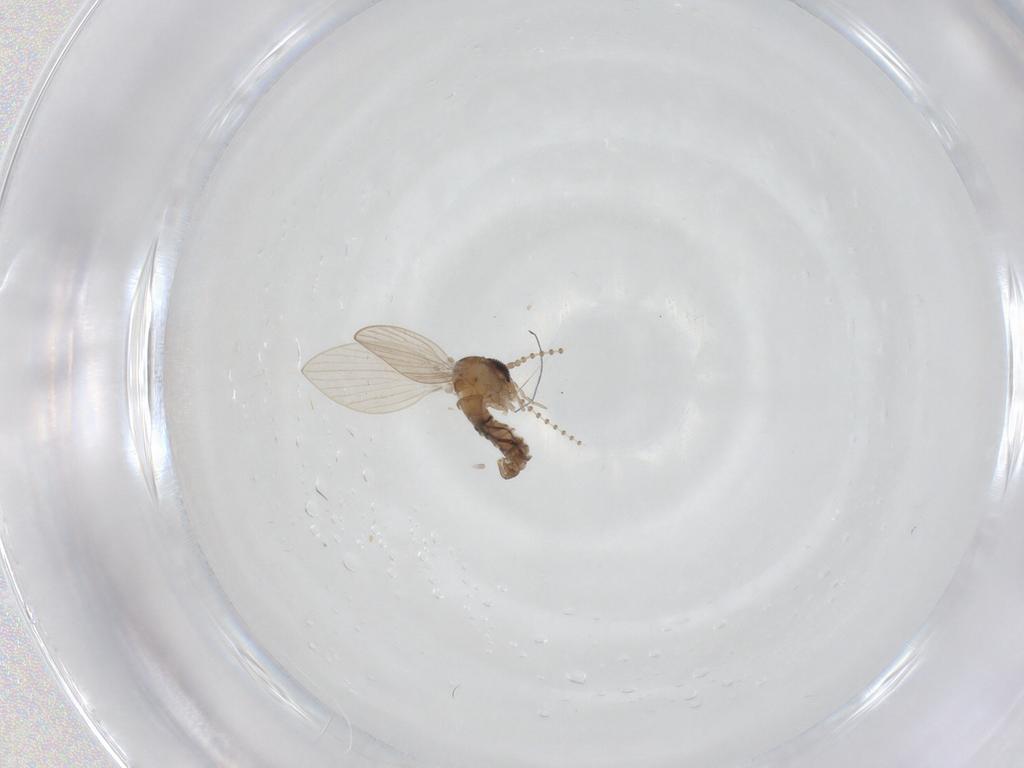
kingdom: Animalia
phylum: Arthropoda
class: Insecta
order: Diptera
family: Psychodidae
